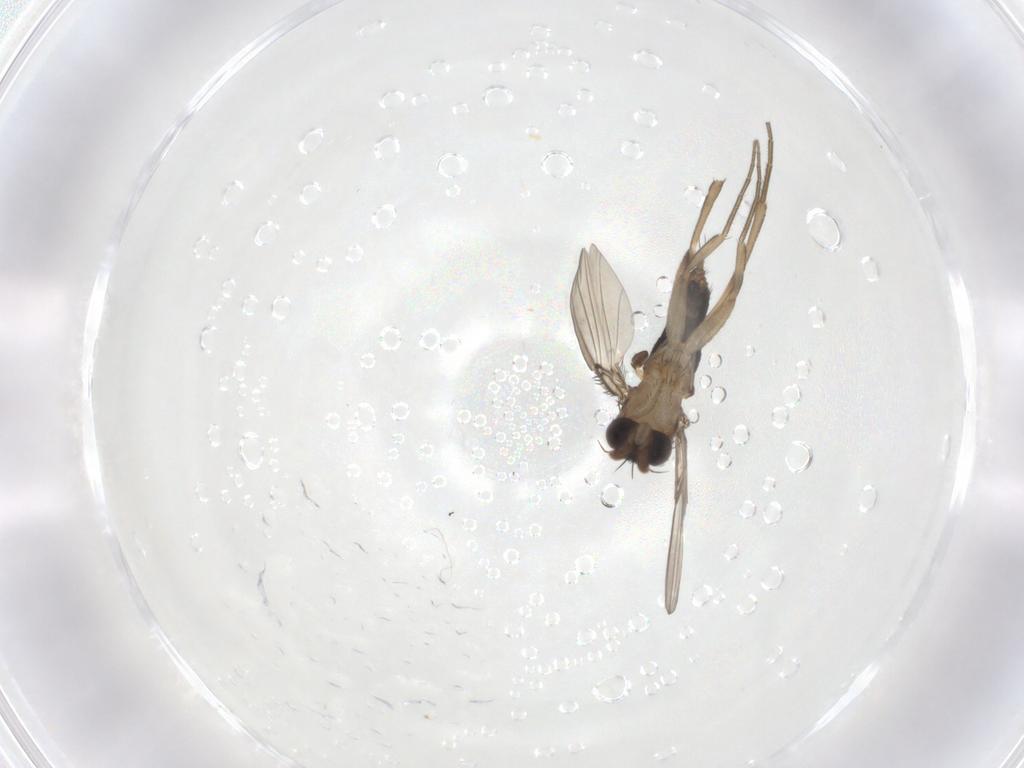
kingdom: Animalia
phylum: Arthropoda
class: Insecta
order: Diptera
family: Phoridae
